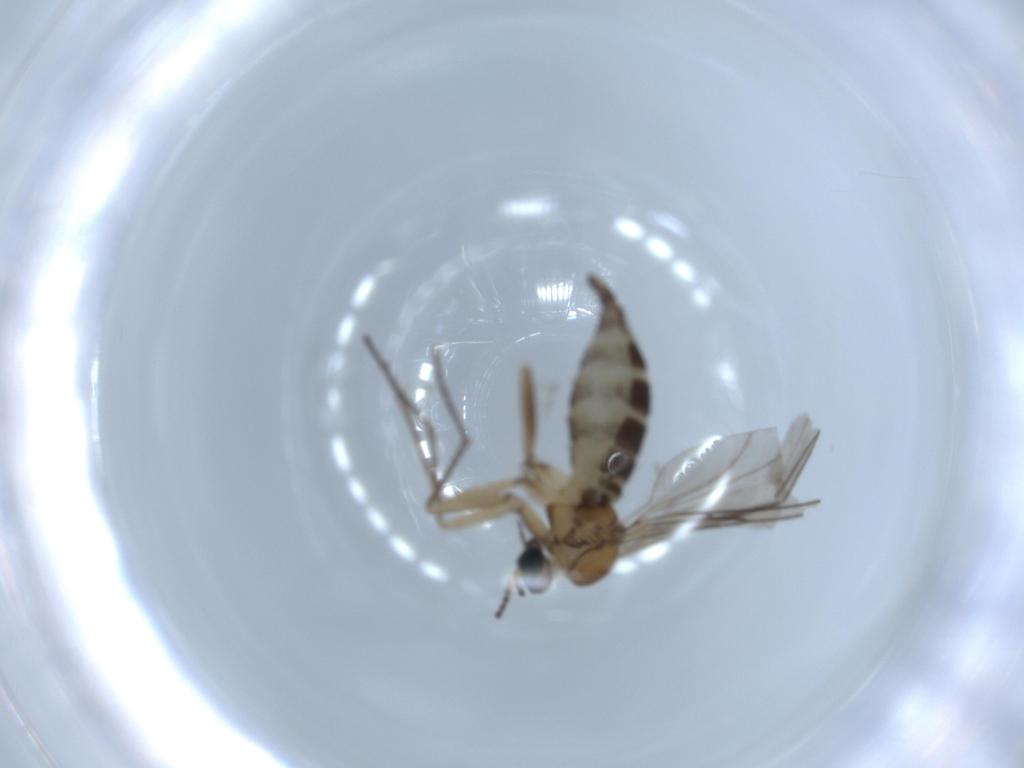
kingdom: Animalia
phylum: Arthropoda
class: Insecta
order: Diptera
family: Sciaridae
